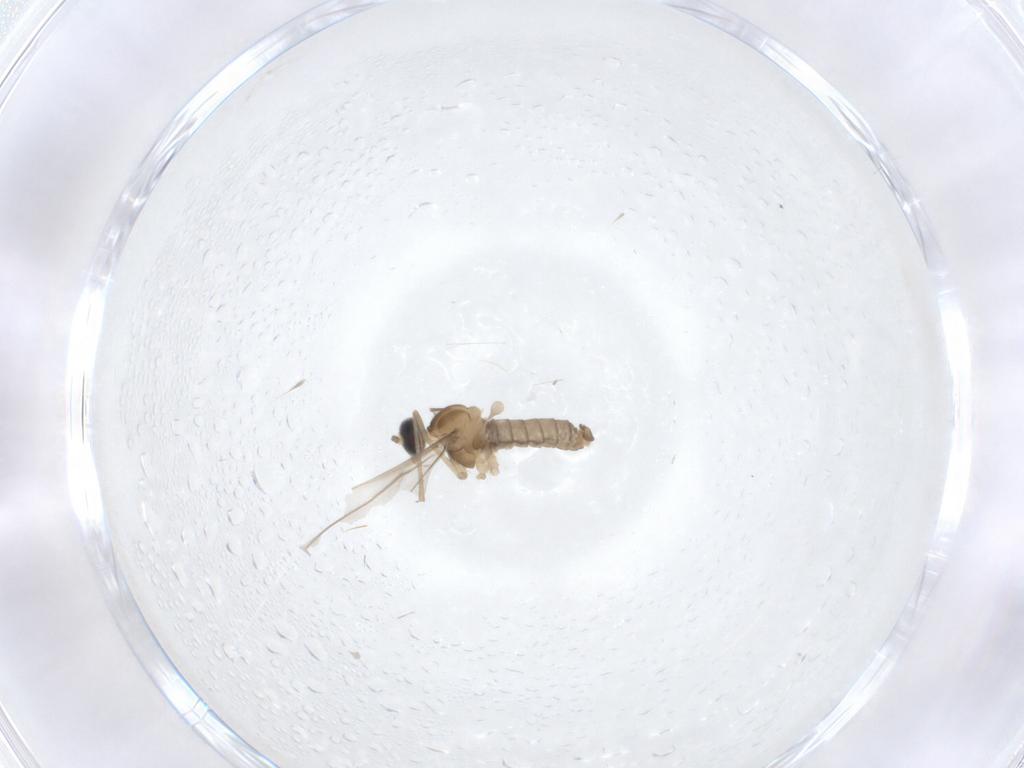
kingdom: Animalia
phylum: Arthropoda
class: Insecta
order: Diptera
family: Cecidomyiidae
